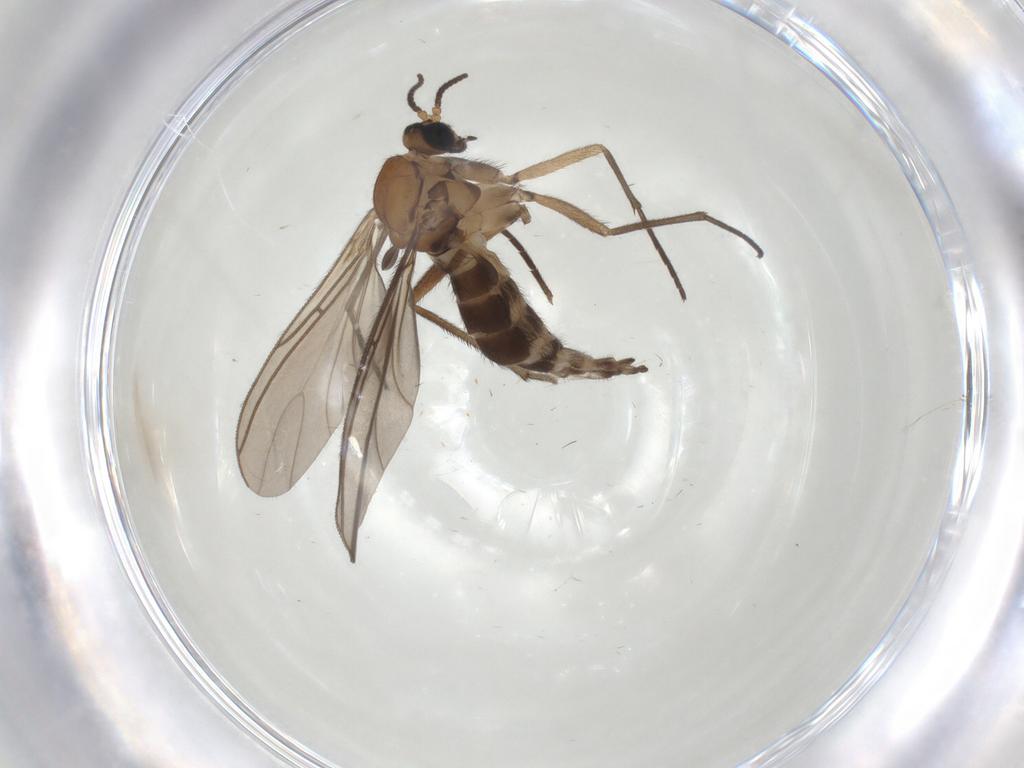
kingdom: Animalia
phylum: Arthropoda
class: Insecta
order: Diptera
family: Sciaridae
